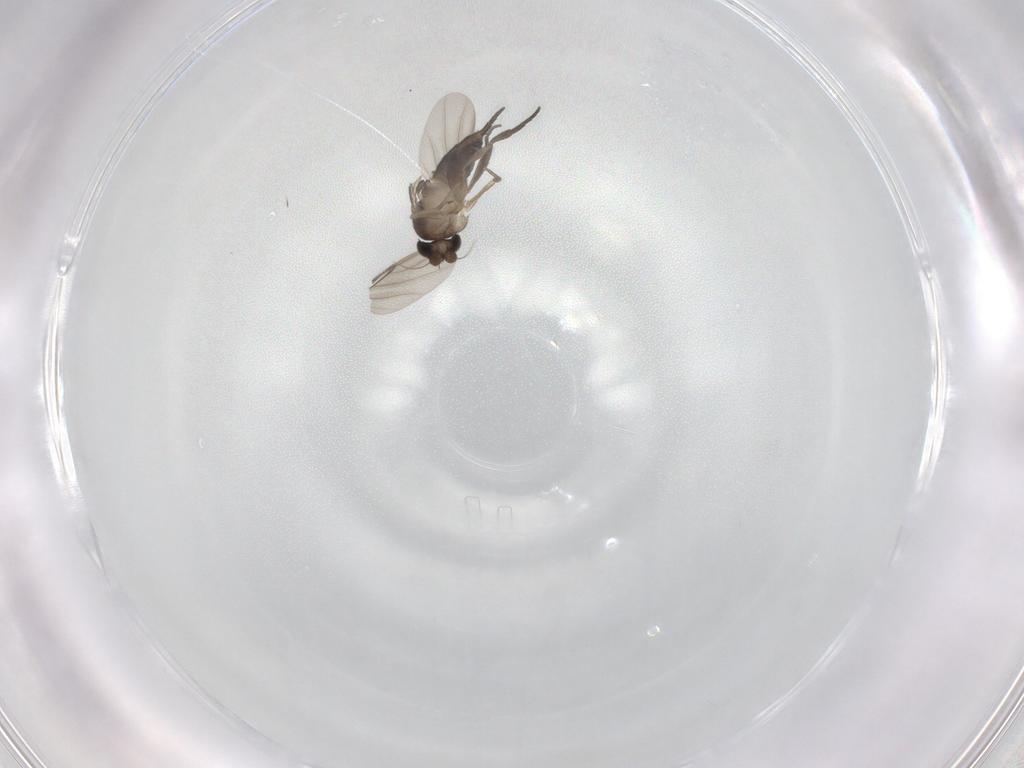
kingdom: Animalia
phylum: Arthropoda
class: Insecta
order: Diptera
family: Phoridae
